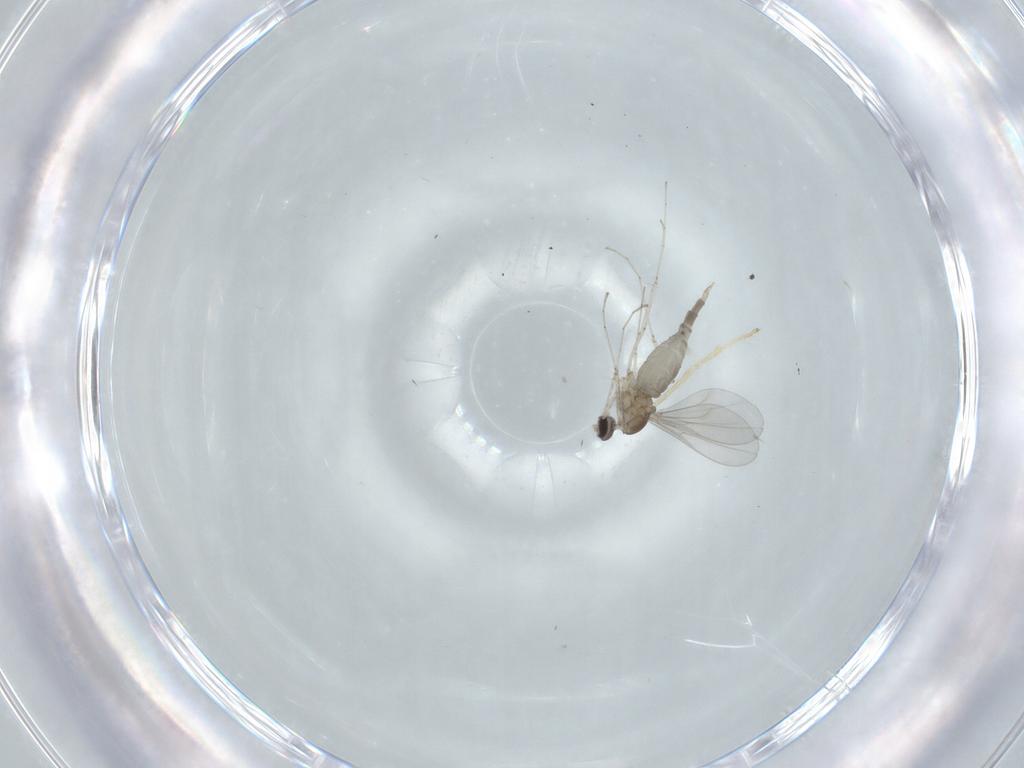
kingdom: Animalia
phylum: Arthropoda
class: Insecta
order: Diptera
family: Cecidomyiidae
